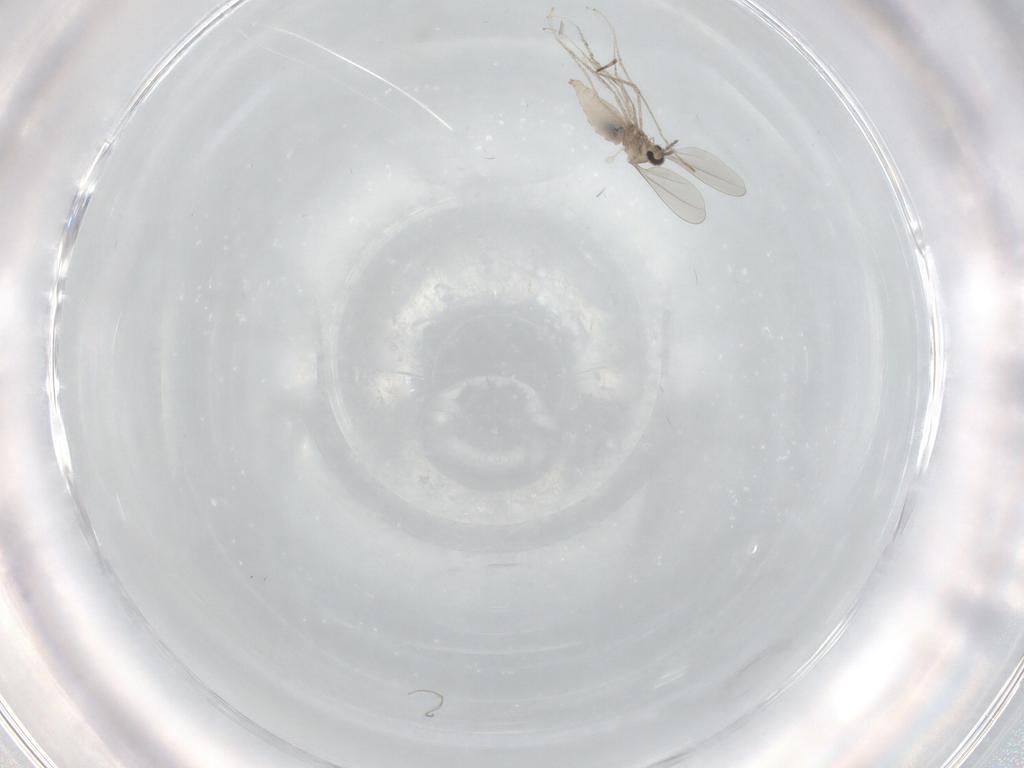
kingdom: Animalia
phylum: Arthropoda
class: Insecta
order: Diptera
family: Cecidomyiidae
